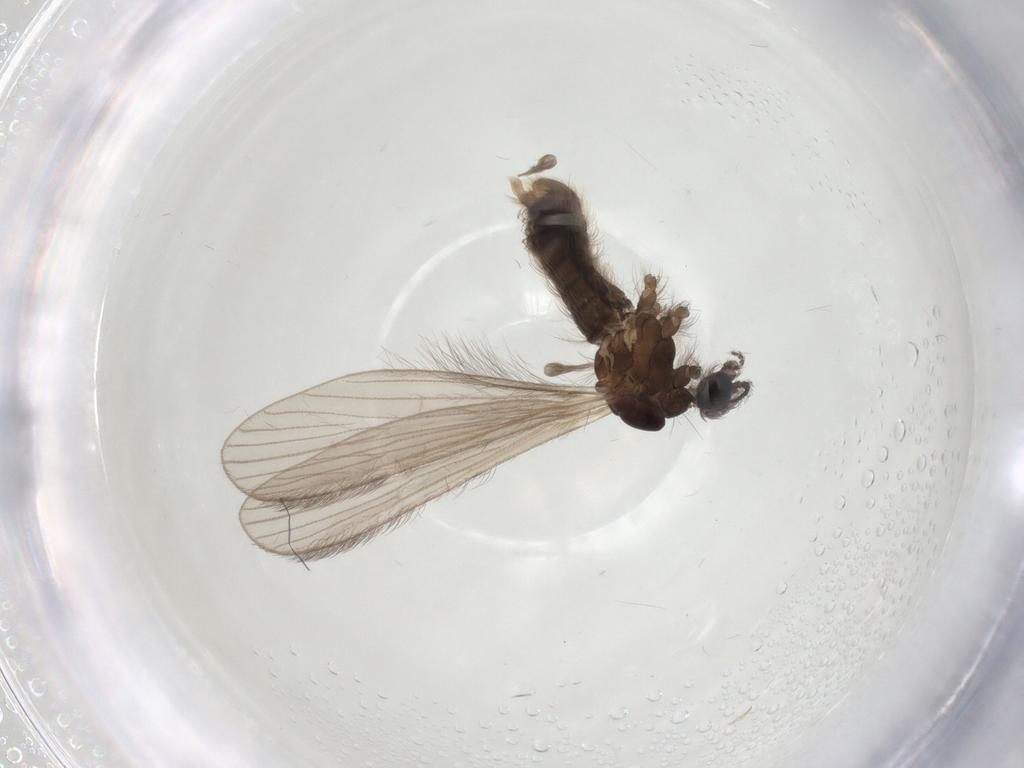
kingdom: Animalia
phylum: Arthropoda
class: Insecta
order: Diptera
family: Limoniidae
